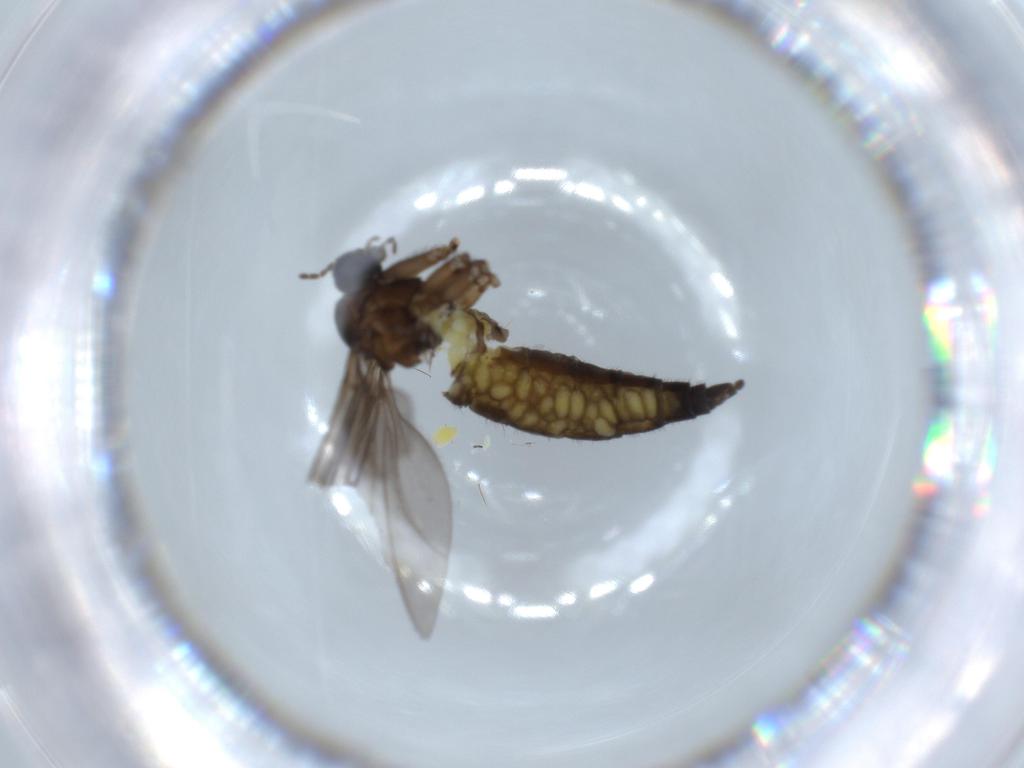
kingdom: Animalia
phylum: Arthropoda
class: Insecta
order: Diptera
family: Sciaridae
